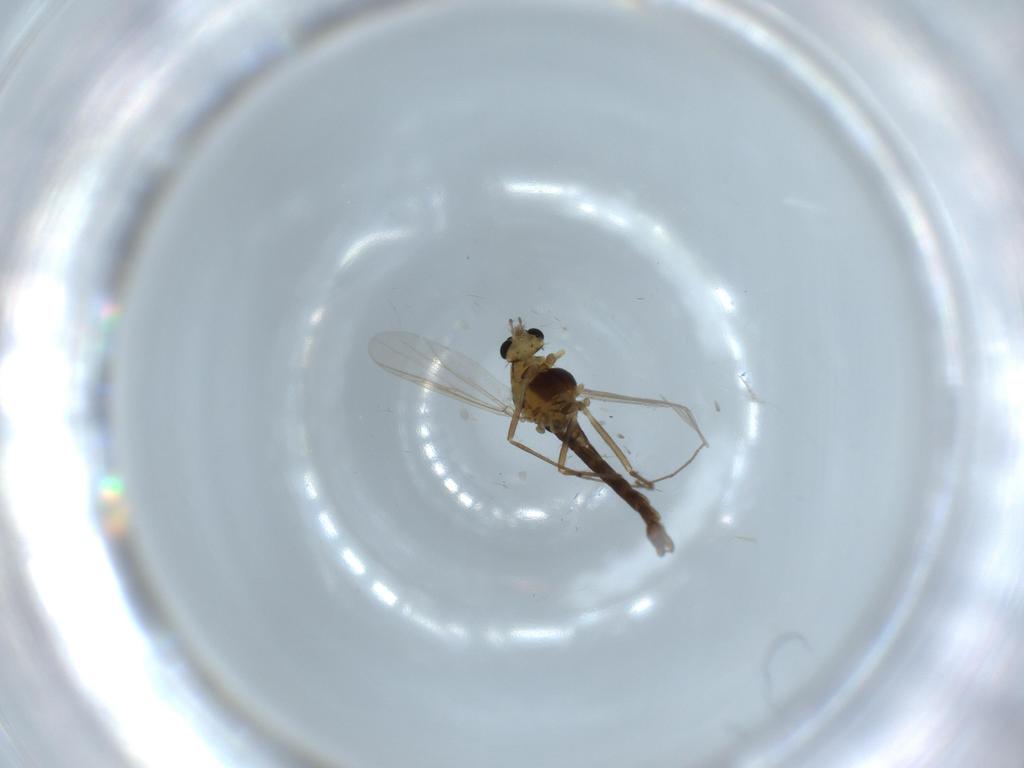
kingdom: Animalia
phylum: Arthropoda
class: Insecta
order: Diptera
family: Chironomidae
